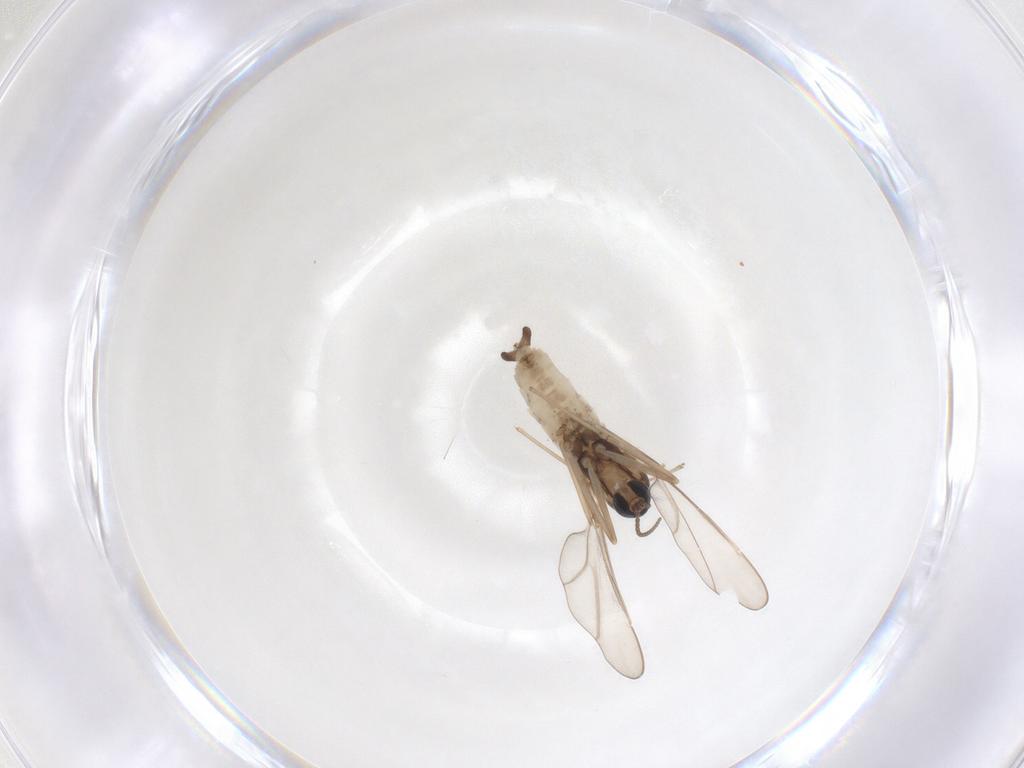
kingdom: Animalia
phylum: Arthropoda
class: Insecta
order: Diptera
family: Cecidomyiidae
